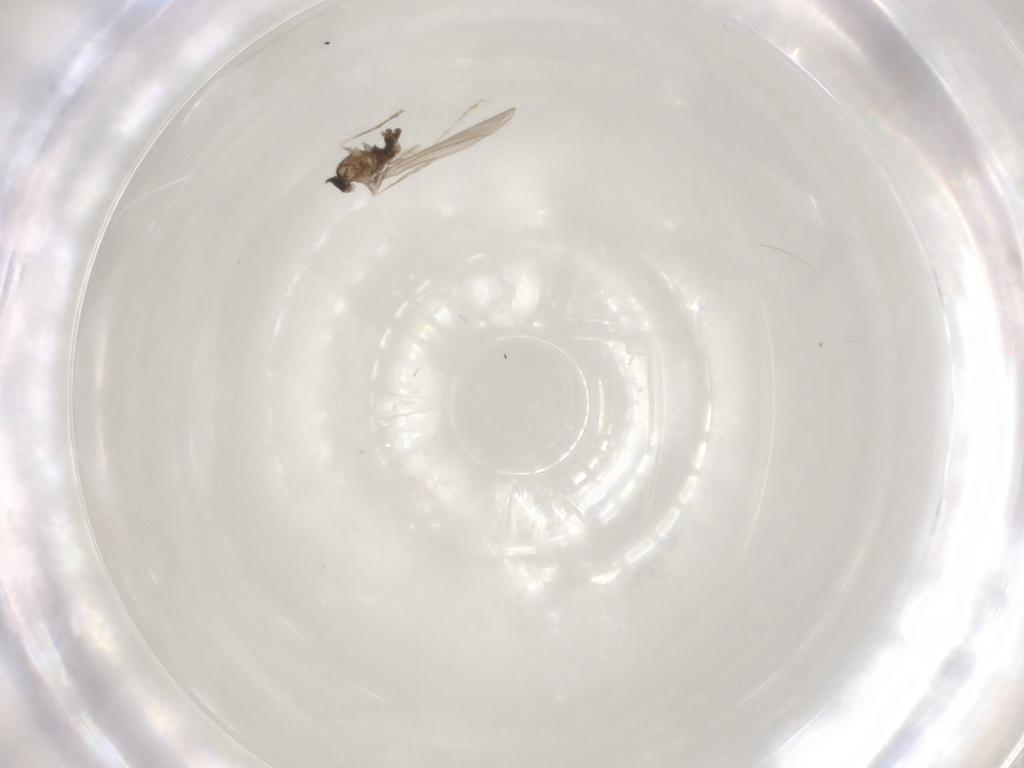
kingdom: Animalia
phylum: Arthropoda
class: Insecta
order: Diptera
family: Cecidomyiidae
